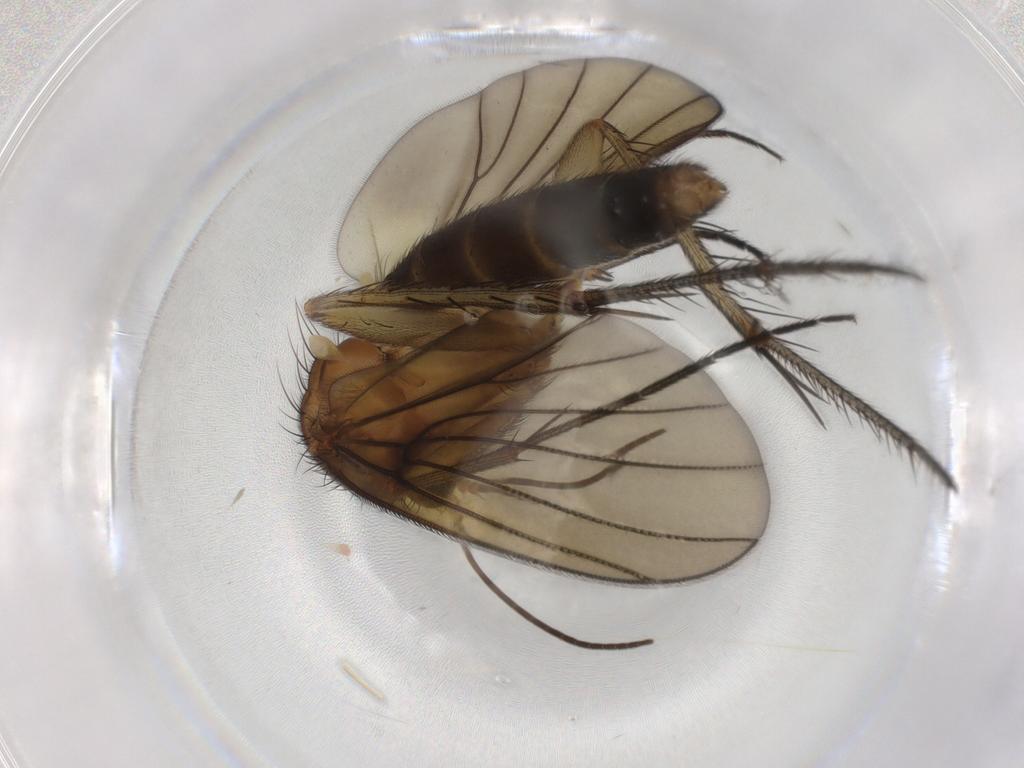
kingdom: Animalia
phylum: Arthropoda
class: Insecta
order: Diptera
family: Mycetophilidae
